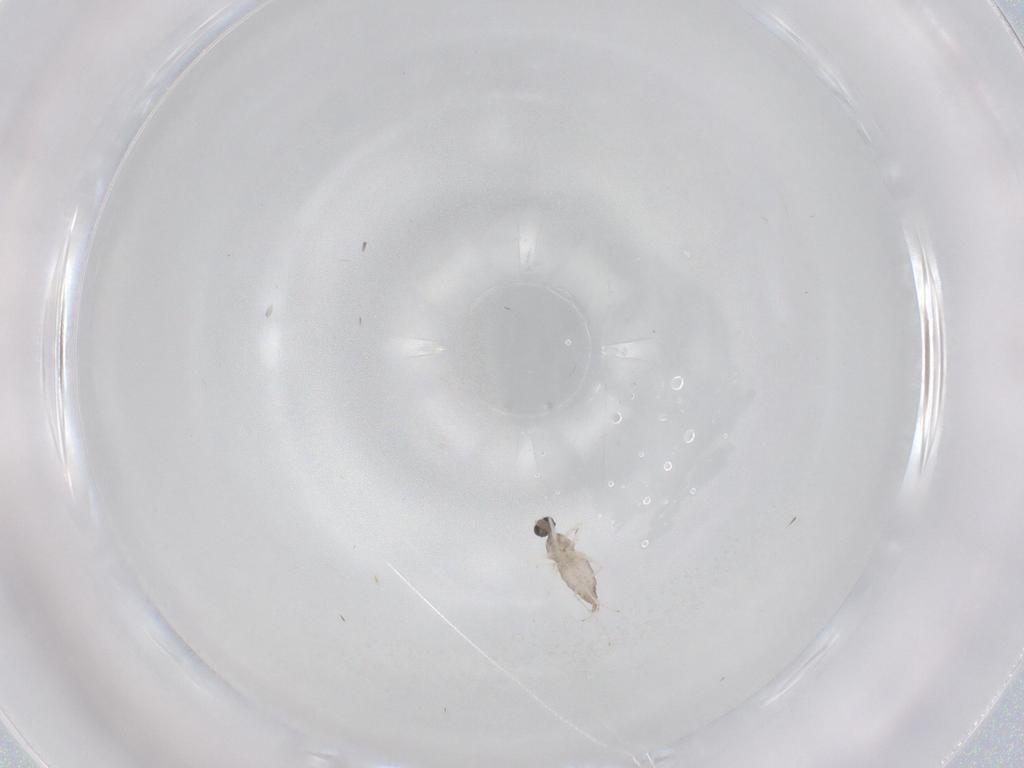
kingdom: Animalia
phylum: Arthropoda
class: Insecta
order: Diptera
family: Cecidomyiidae
